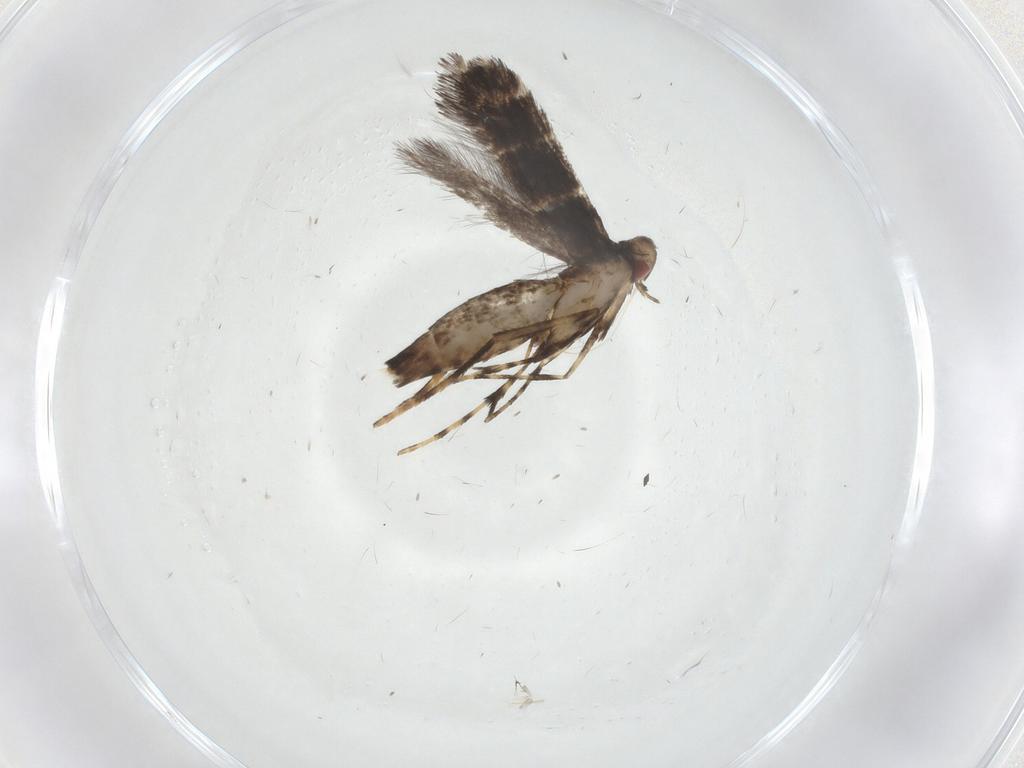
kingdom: Animalia
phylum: Arthropoda
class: Insecta
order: Lepidoptera
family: Gracillariidae
